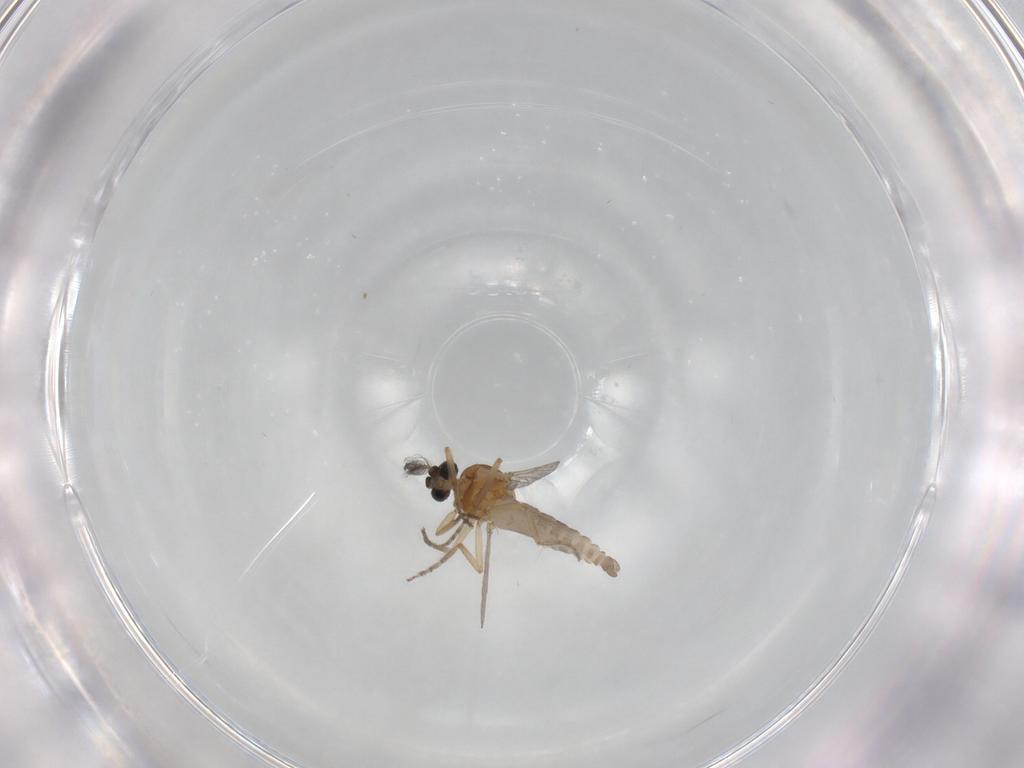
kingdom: Animalia
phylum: Arthropoda
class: Insecta
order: Diptera
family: Ceratopogonidae
